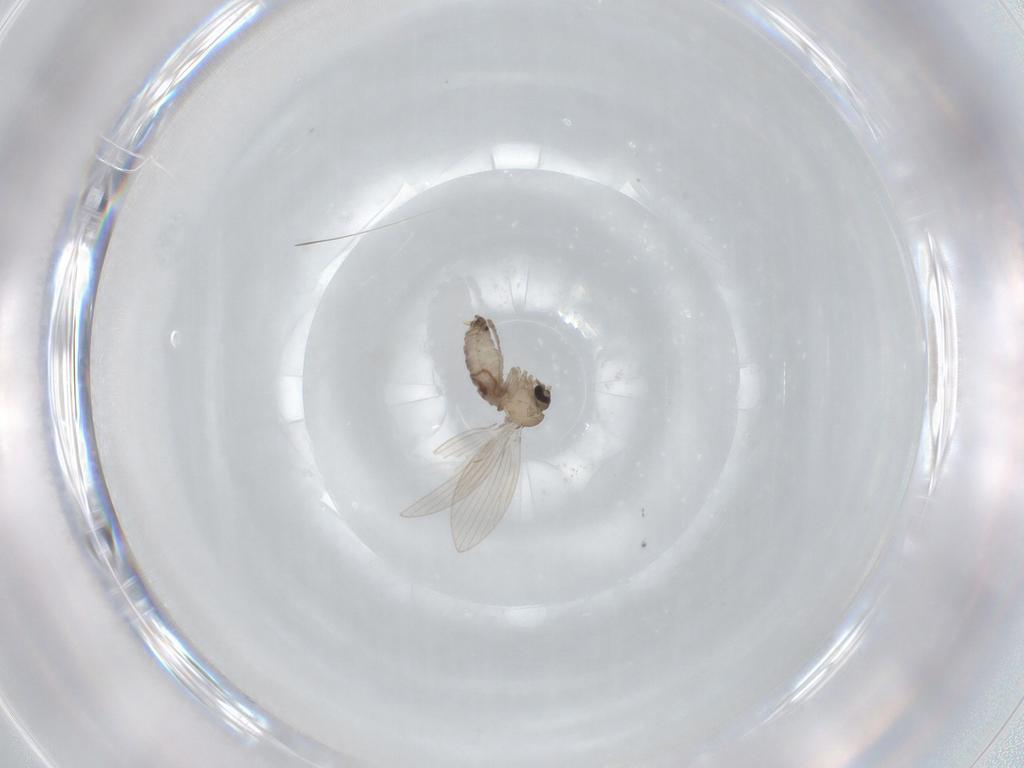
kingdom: Animalia
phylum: Arthropoda
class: Insecta
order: Diptera
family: Psychodidae
